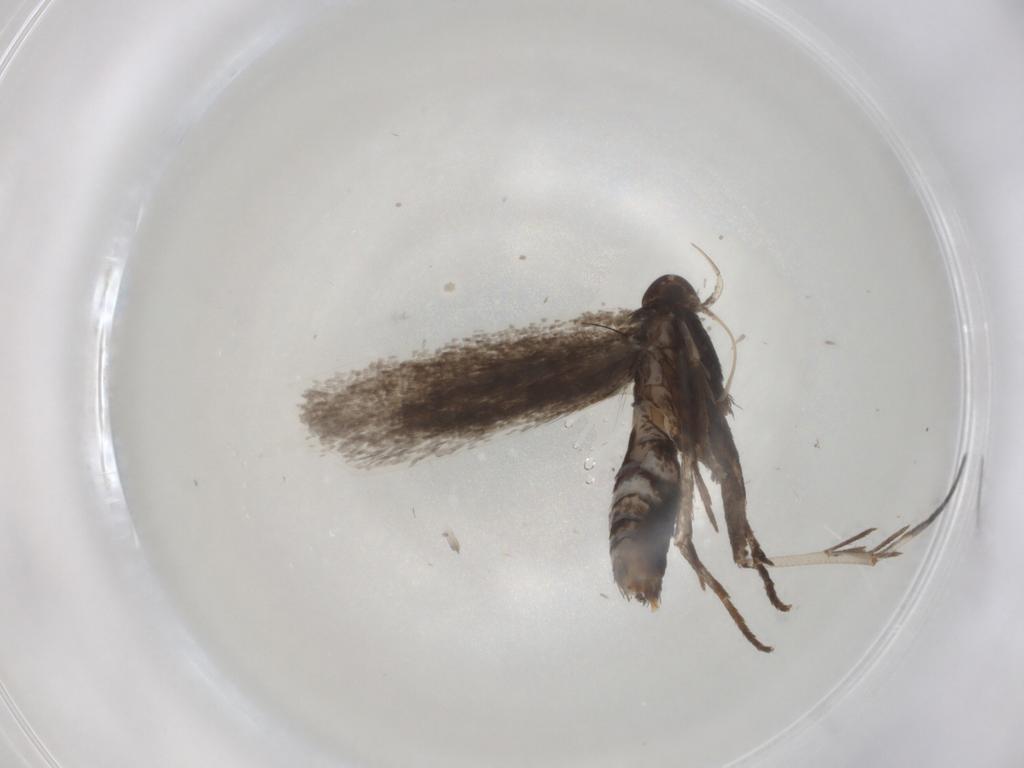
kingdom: Animalia
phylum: Arthropoda
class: Insecta
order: Lepidoptera
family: Gelechiidae
